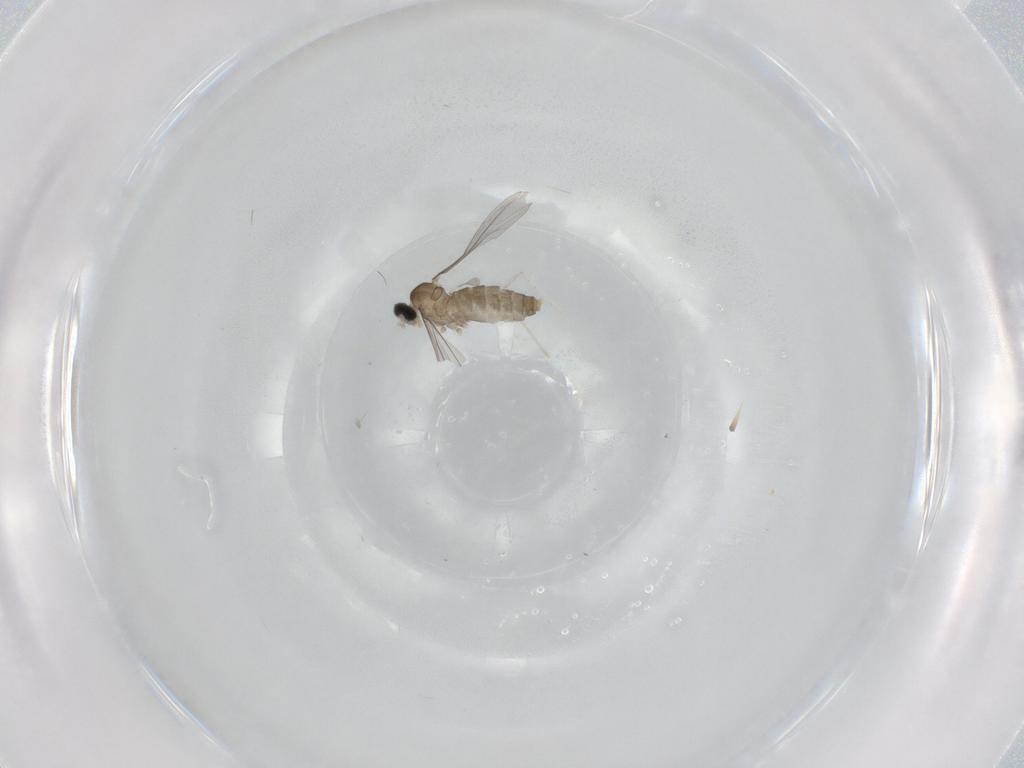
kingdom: Animalia
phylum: Arthropoda
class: Insecta
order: Diptera
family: Cecidomyiidae
